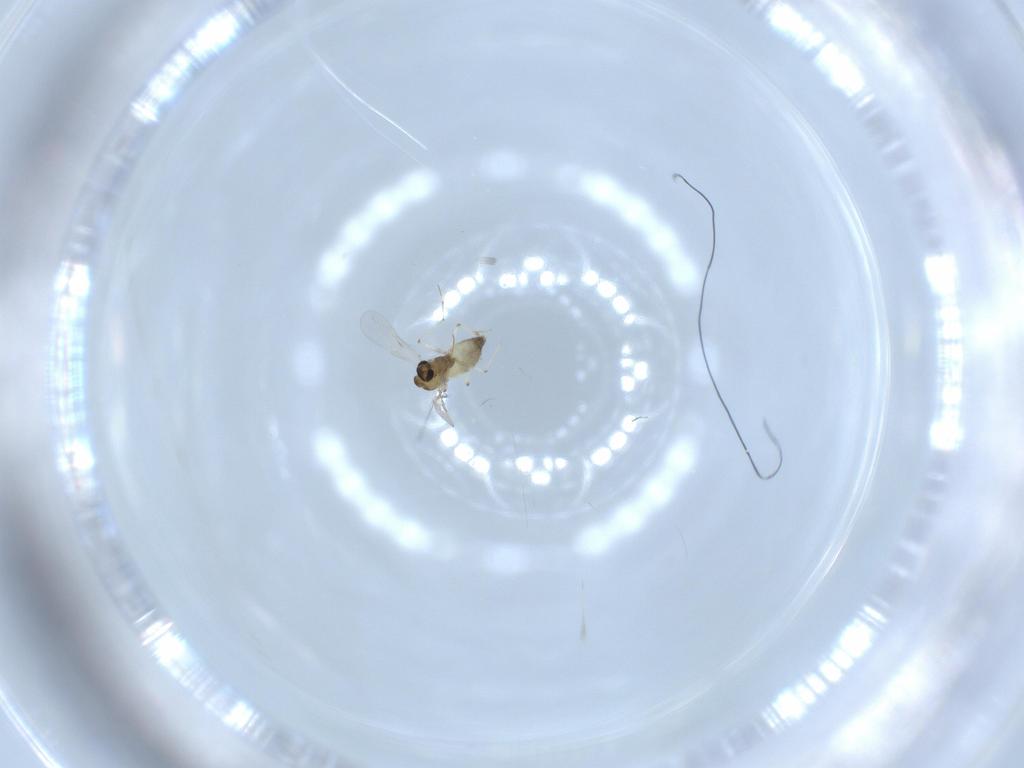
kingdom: Animalia
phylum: Arthropoda
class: Insecta
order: Diptera
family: Chironomidae
